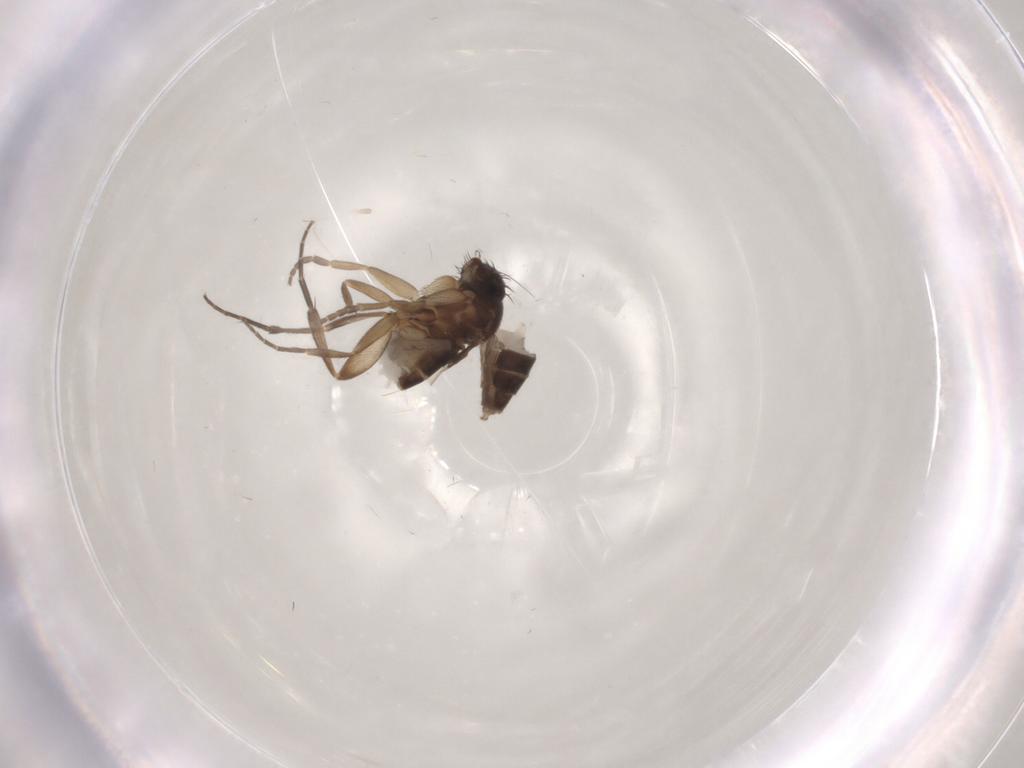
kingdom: Animalia
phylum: Arthropoda
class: Insecta
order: Diptera
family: Phoridae
